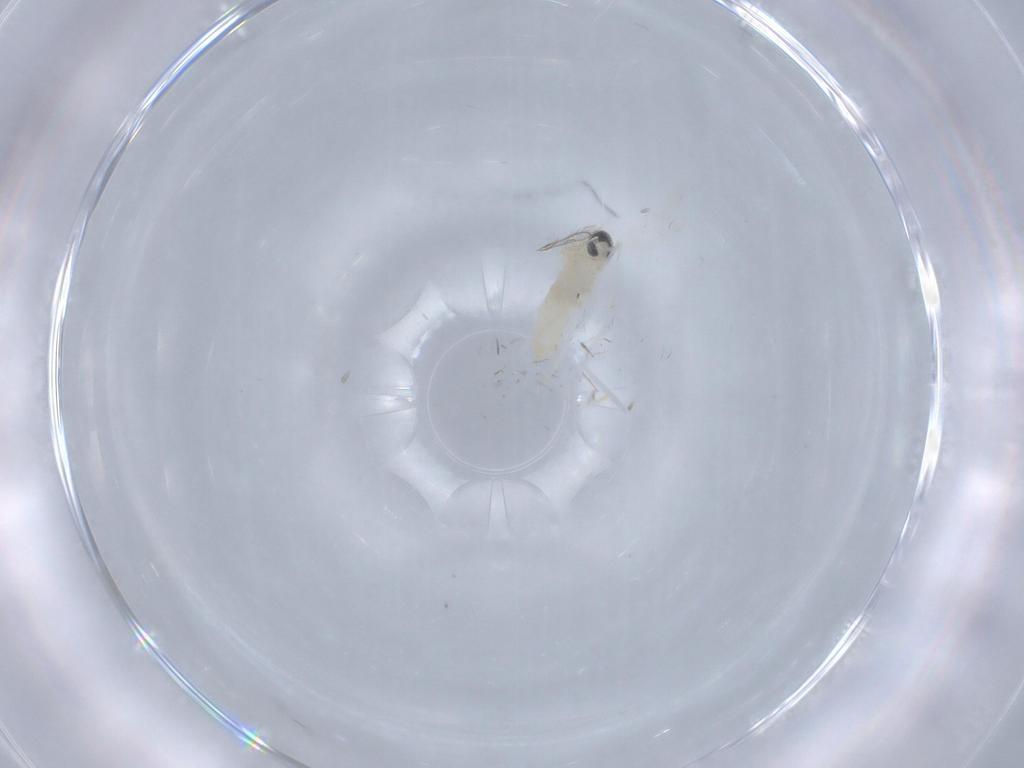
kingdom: Animalia
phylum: Arthropoda
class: Insecta
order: Diptera
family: Cecidomyiidae
